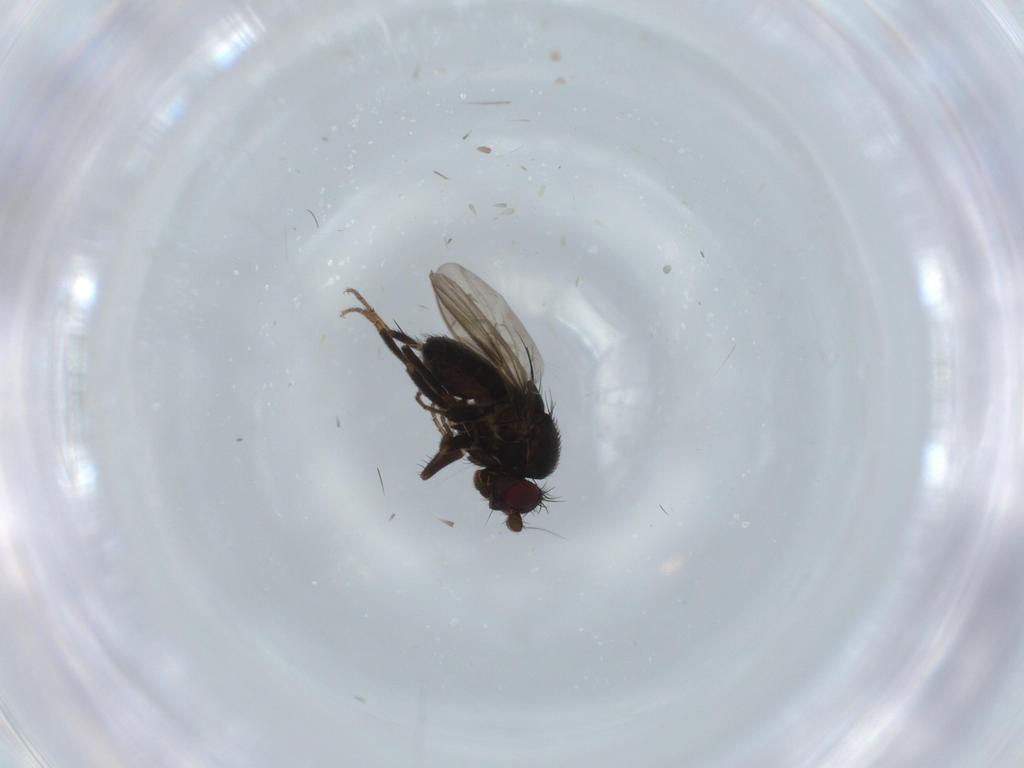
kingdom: Animalia
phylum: Arthropoda
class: Insecta
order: Diptera
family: Sphaeroceridae
